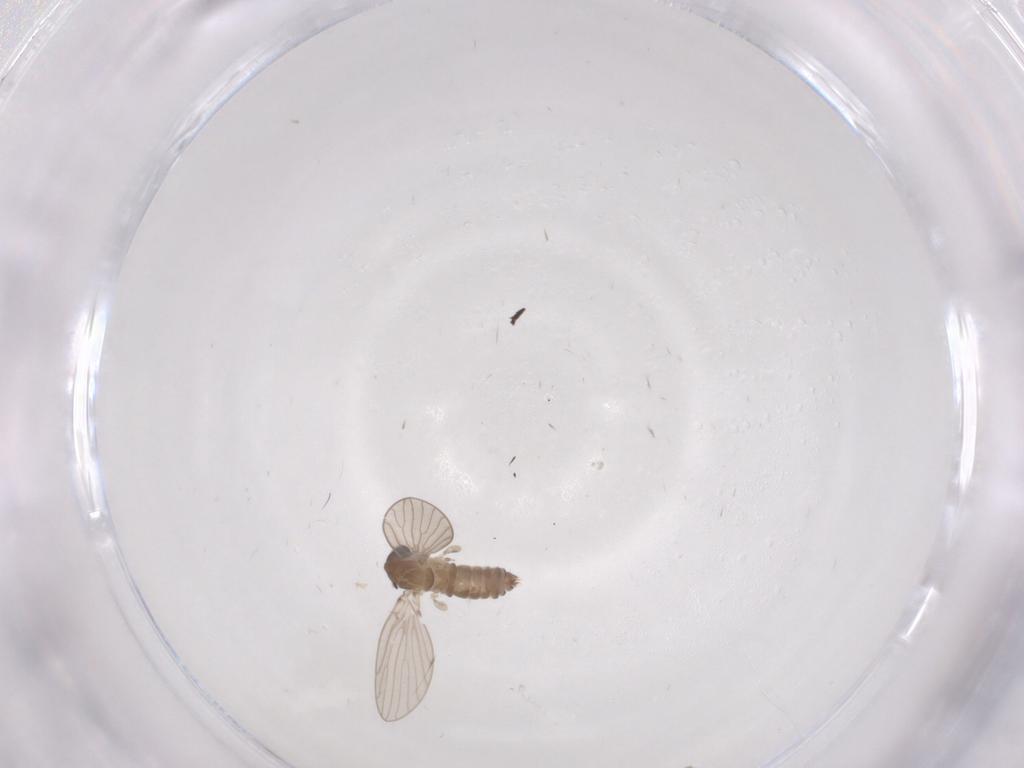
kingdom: Animalia
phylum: Arthropoda
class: Insecta
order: Diptera
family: Psychodidae
